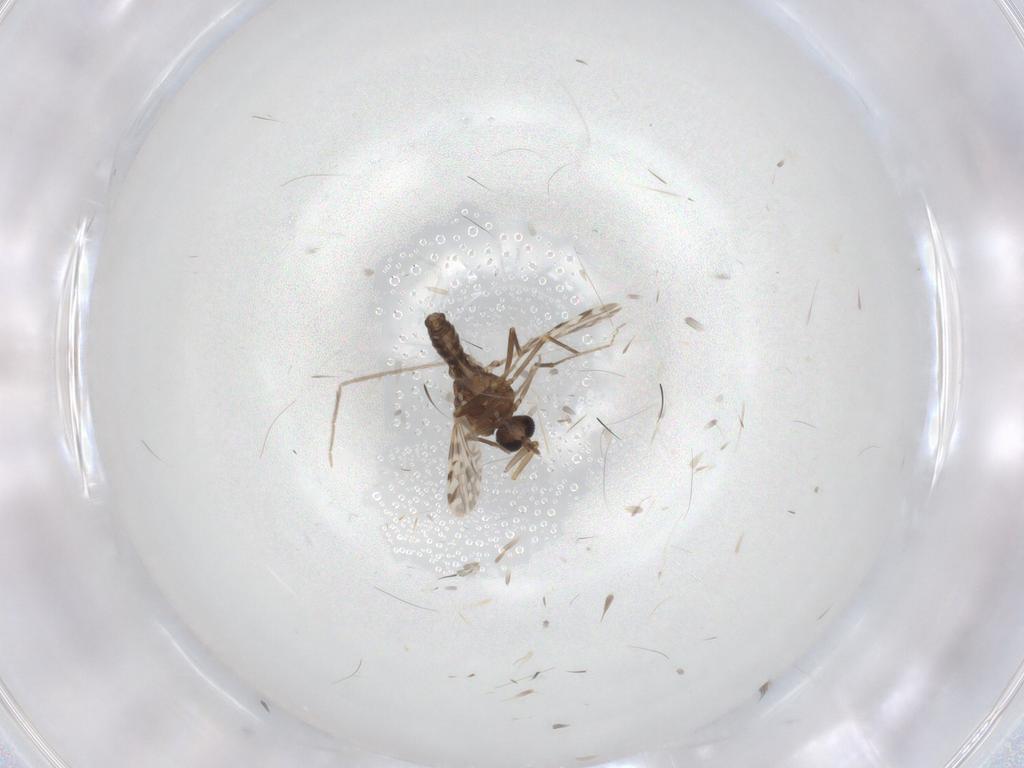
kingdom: Animalia
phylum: Arthropoda
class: Insecta
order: Diptera
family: Ceratopogonidae
